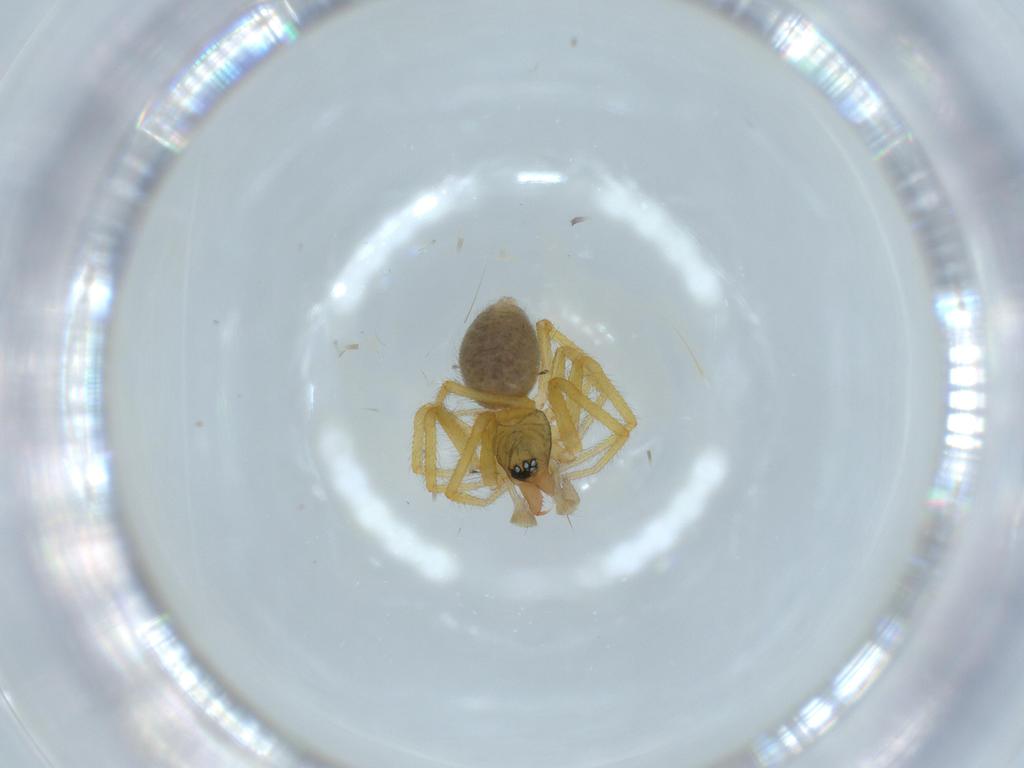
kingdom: Animalia
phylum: Arthropoda
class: Arachnida
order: Araneae
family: Linyphiidae
